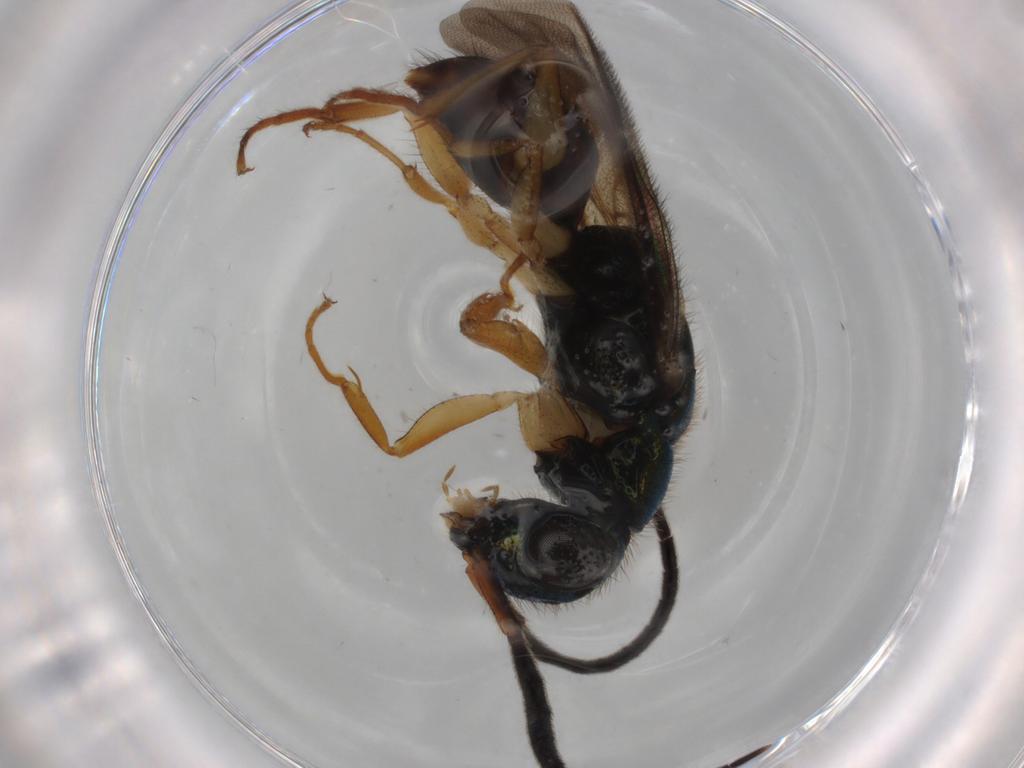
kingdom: Animalia
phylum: Arthropoda
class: Insecta
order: Hymenoptera
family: Chrysididae
